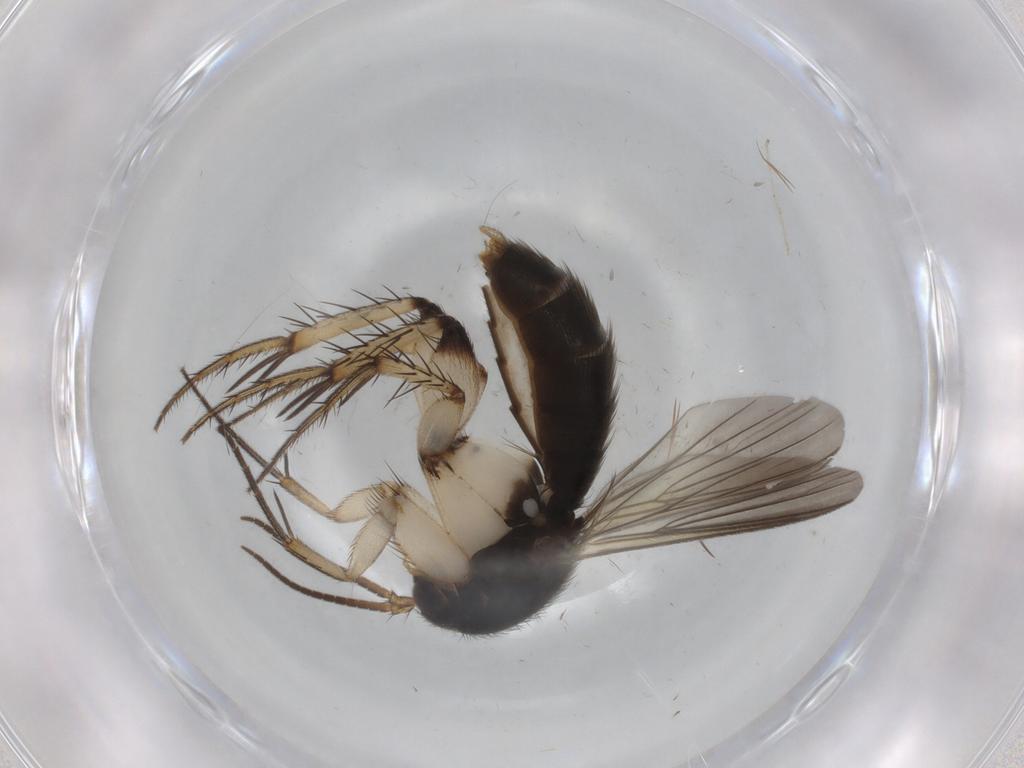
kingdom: Animalia
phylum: Arthropoda
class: Insecta
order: Diptera
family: Mycetophilidae
